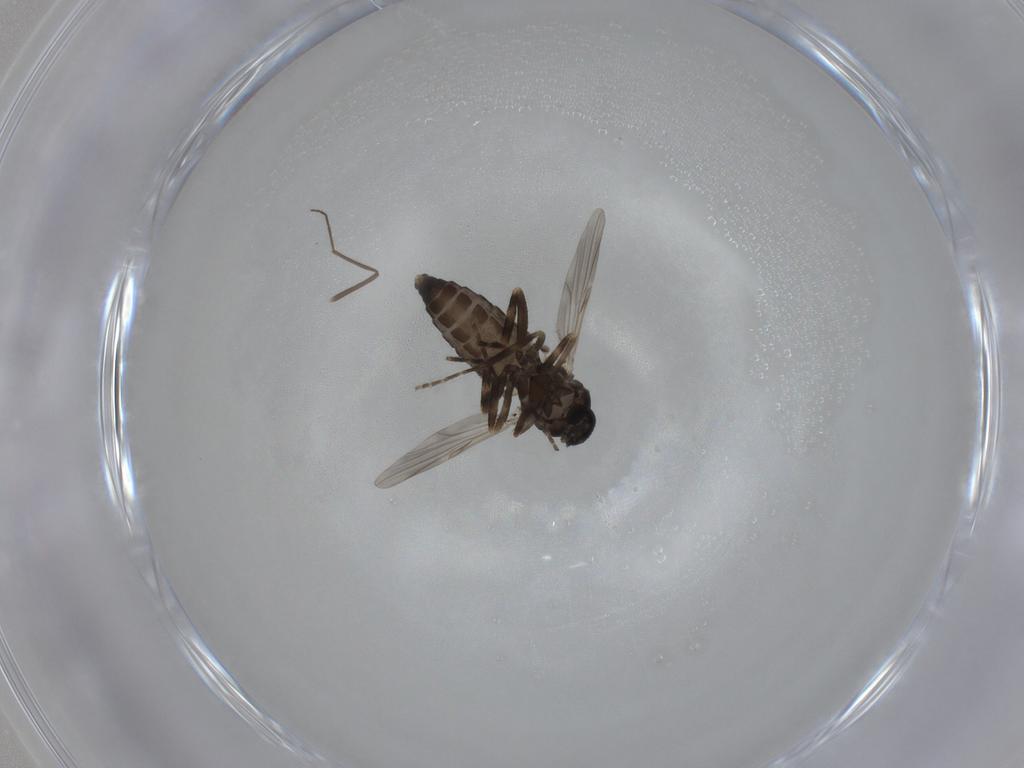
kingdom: Animalia
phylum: Arthropoda
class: Insecta
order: Diptera
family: Ceratopogonidae
